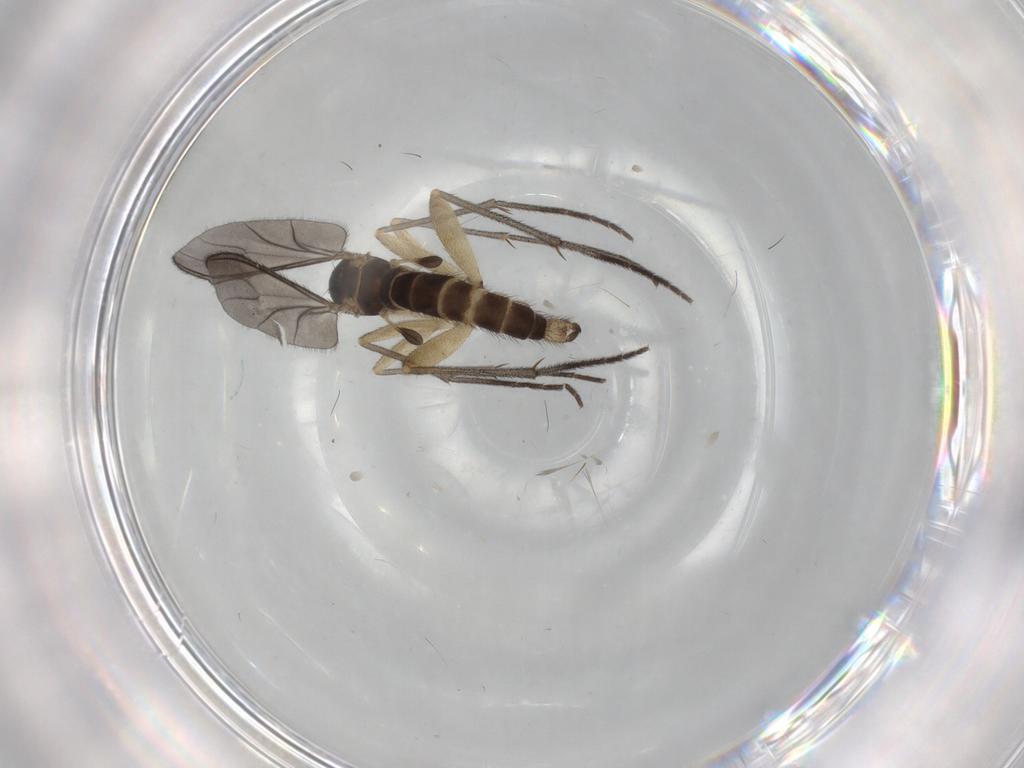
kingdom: Animalia
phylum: Arthropoda
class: Insecta
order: Diptera
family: Sciaridae
